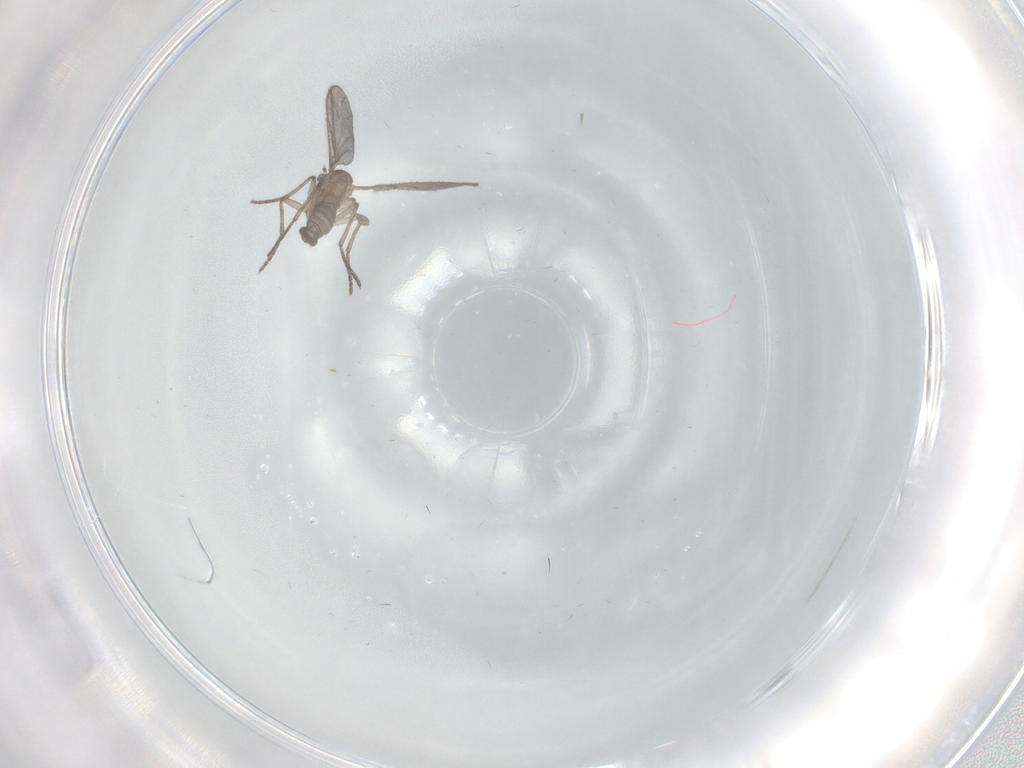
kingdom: Animalia
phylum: Arthropoda
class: Insecta
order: Diptera
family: Sciaridae
